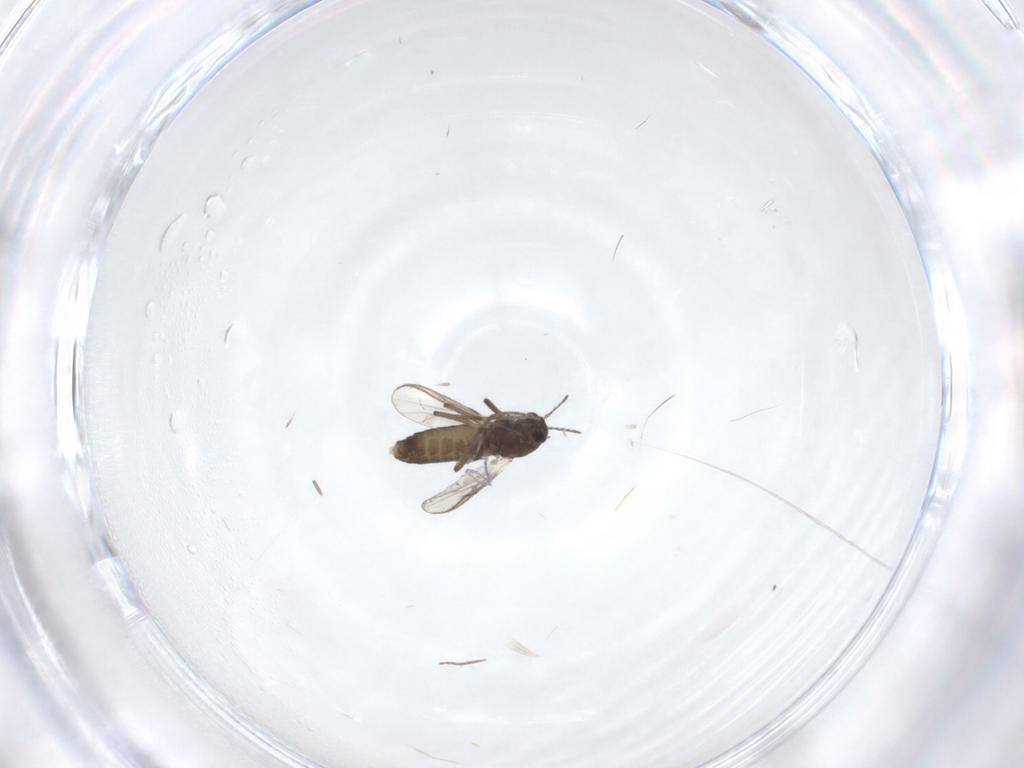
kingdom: Animalia
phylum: Arthropoda
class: Insecta
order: Diptera
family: Chironomidae
